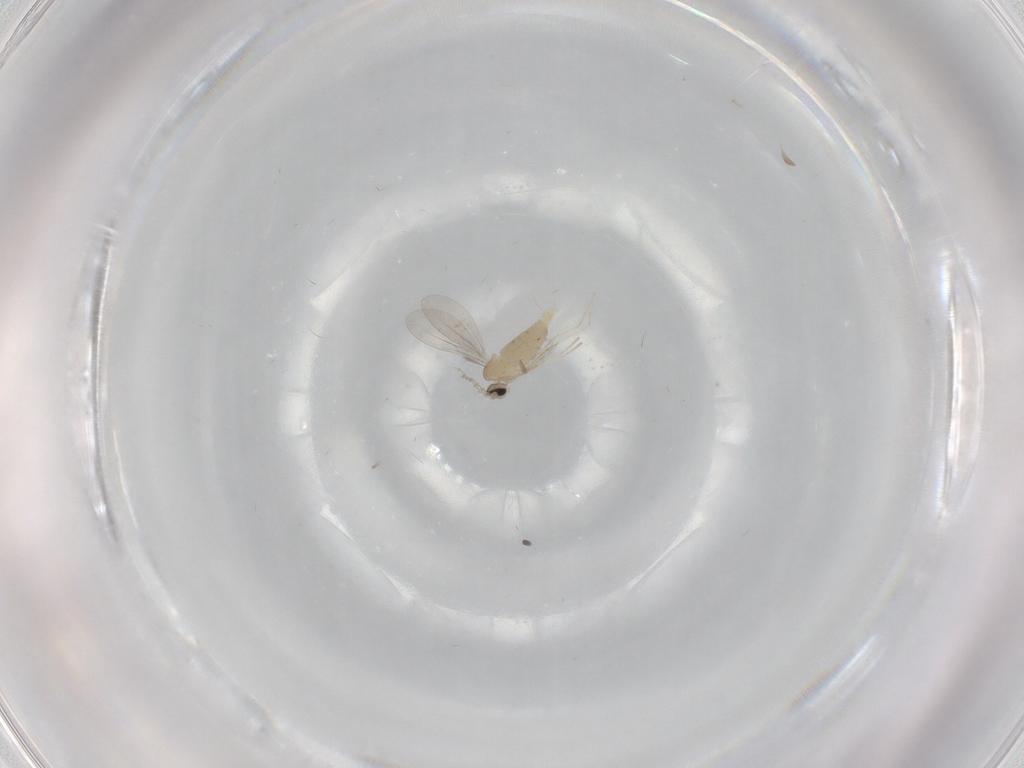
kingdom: Animalia
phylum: Arthropoda
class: Insecta
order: Diptera
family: Cecidomyiidae
